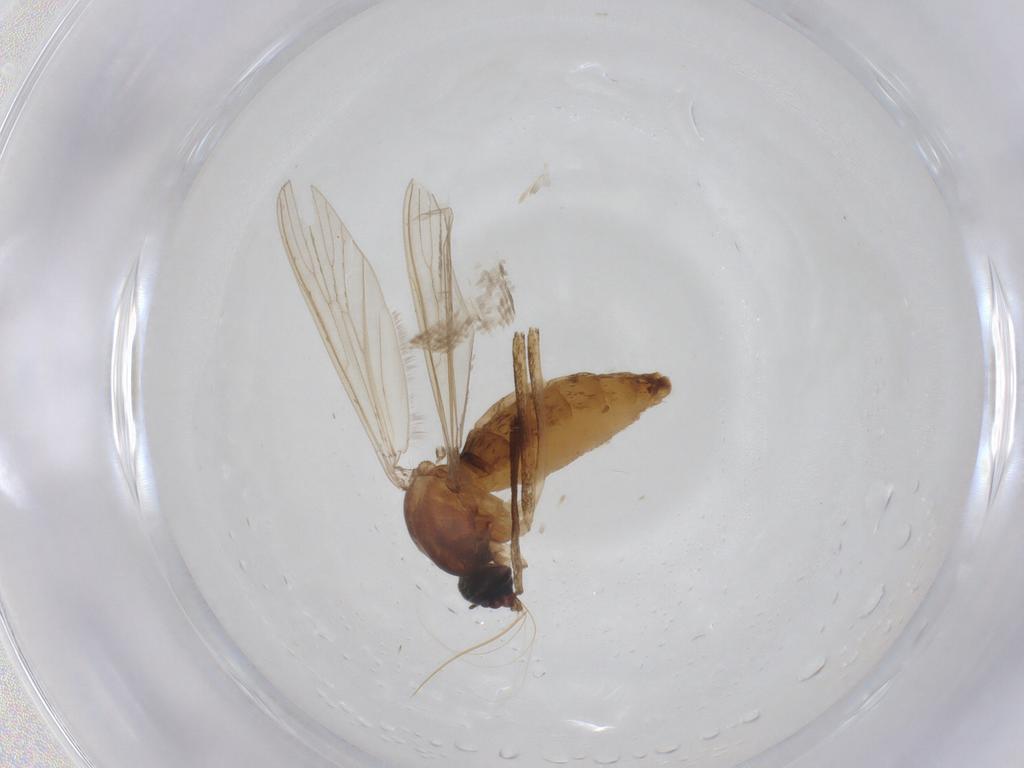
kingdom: Animalia
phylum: Arthropoda
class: Insecta
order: Diptera
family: Culicidae
